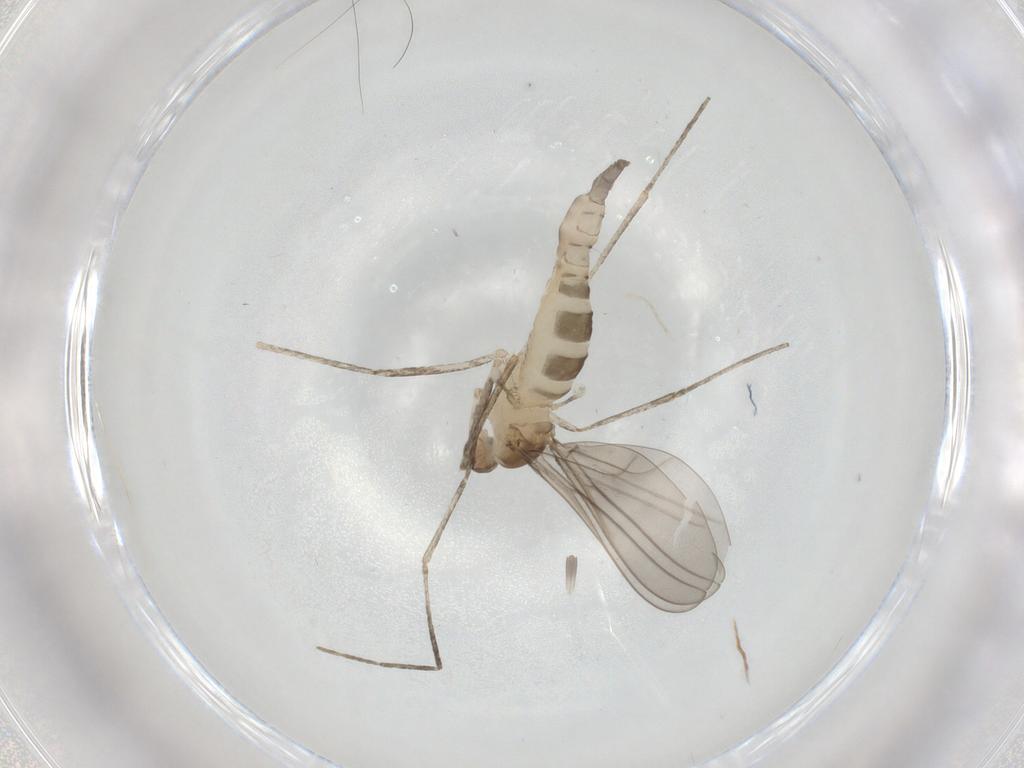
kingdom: Animalia
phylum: Arthropoda
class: Insecta
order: Diptera
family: Cecidomyiidae
